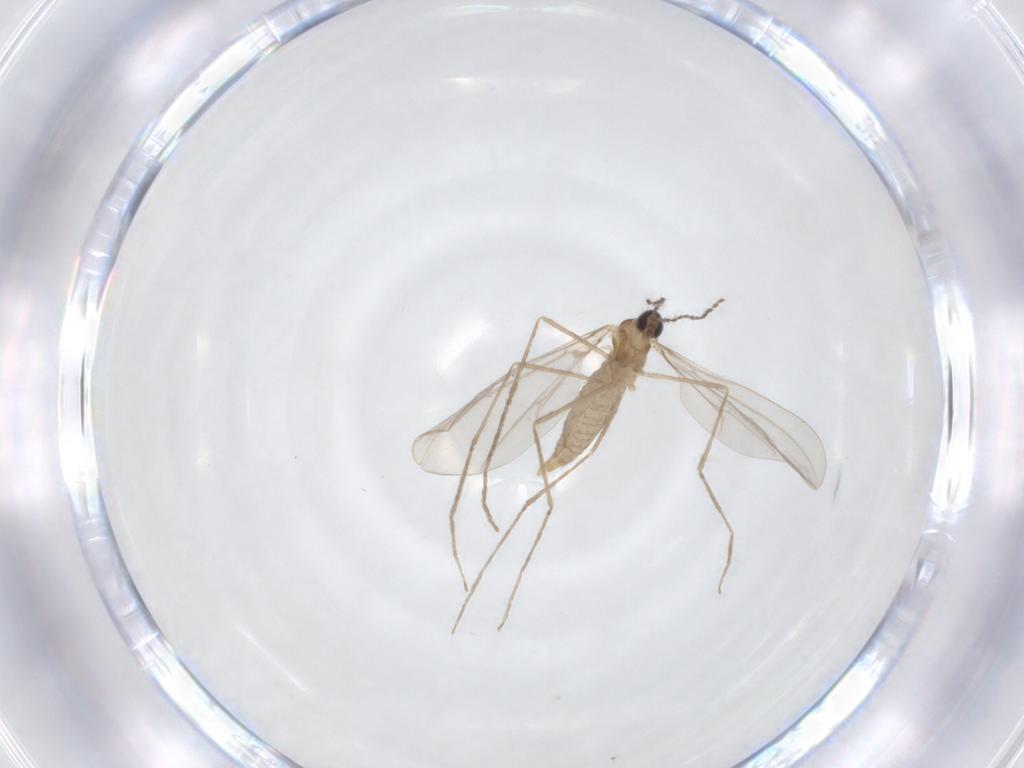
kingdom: Animalia
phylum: Arthropoda
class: Insecta
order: Diptera
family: Cecidomyiidae
